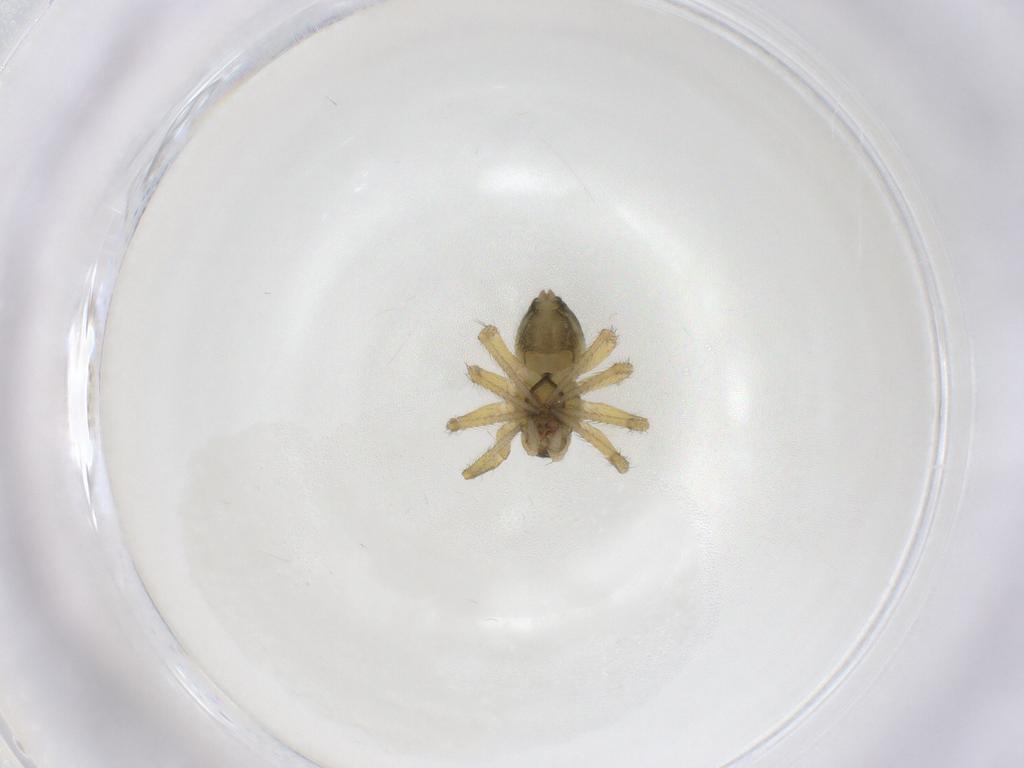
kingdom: Animalia
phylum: Arthropoda
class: Arachnida
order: Araneae
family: Linyphiidae
